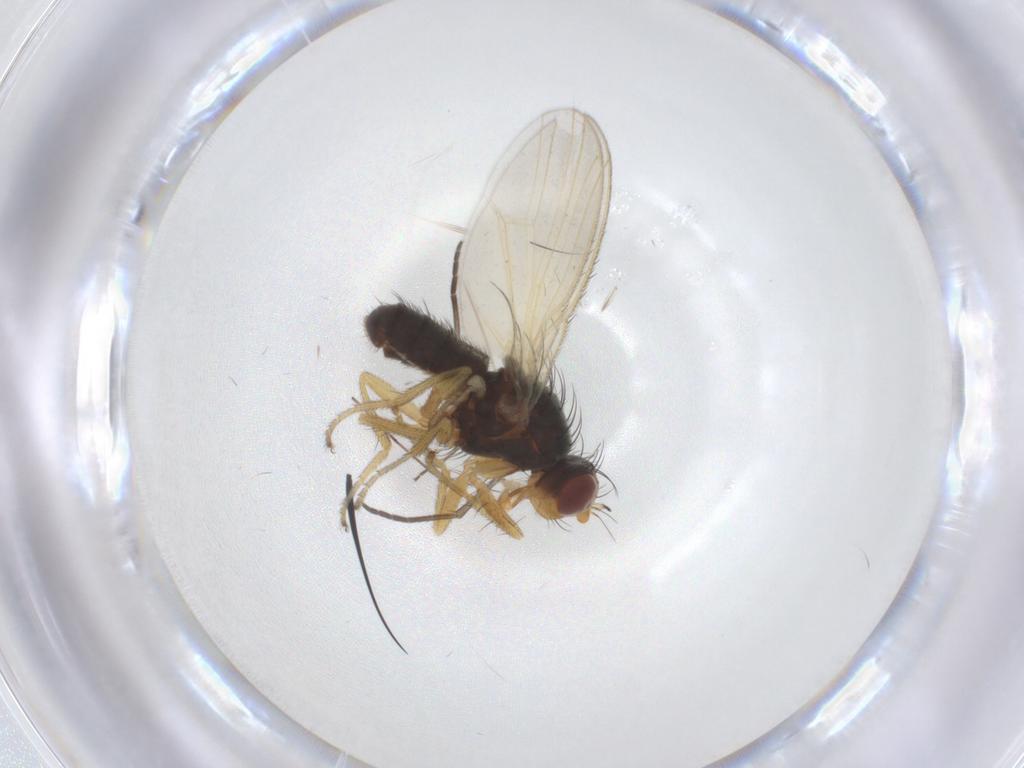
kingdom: Animalia
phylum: Arthropoda
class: Insecta
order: Diptera
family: Heleomyzidae
